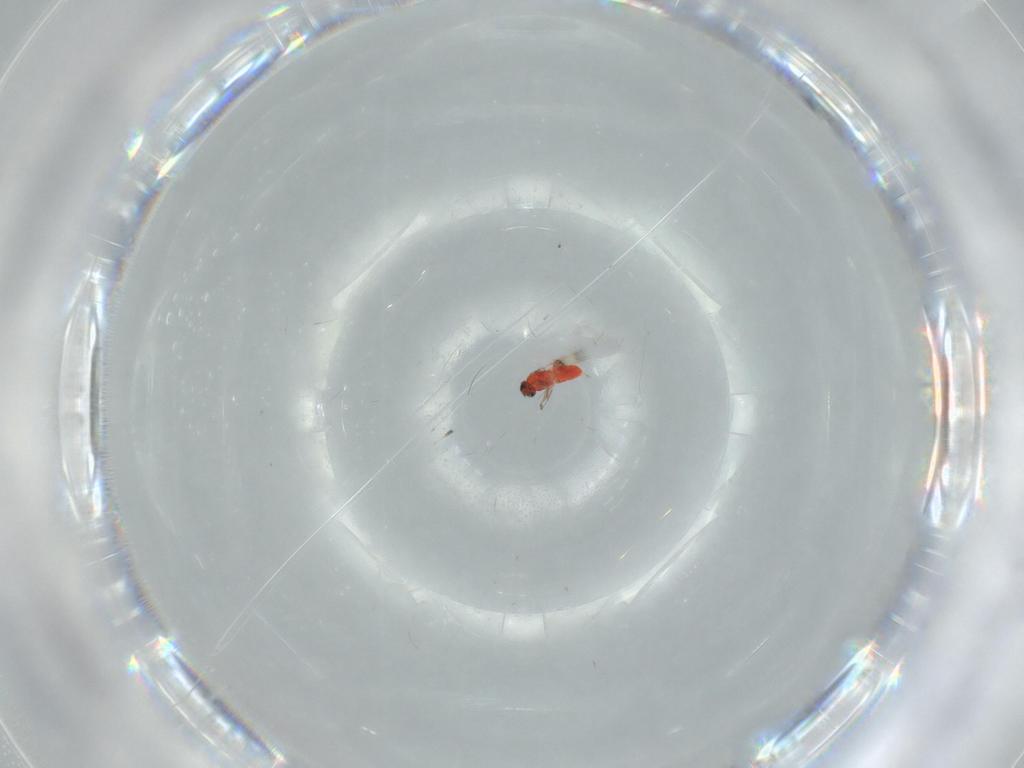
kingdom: Animalia
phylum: Arthropoda
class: Insecta
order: Hymenoptera
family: Trichogrammatidae
